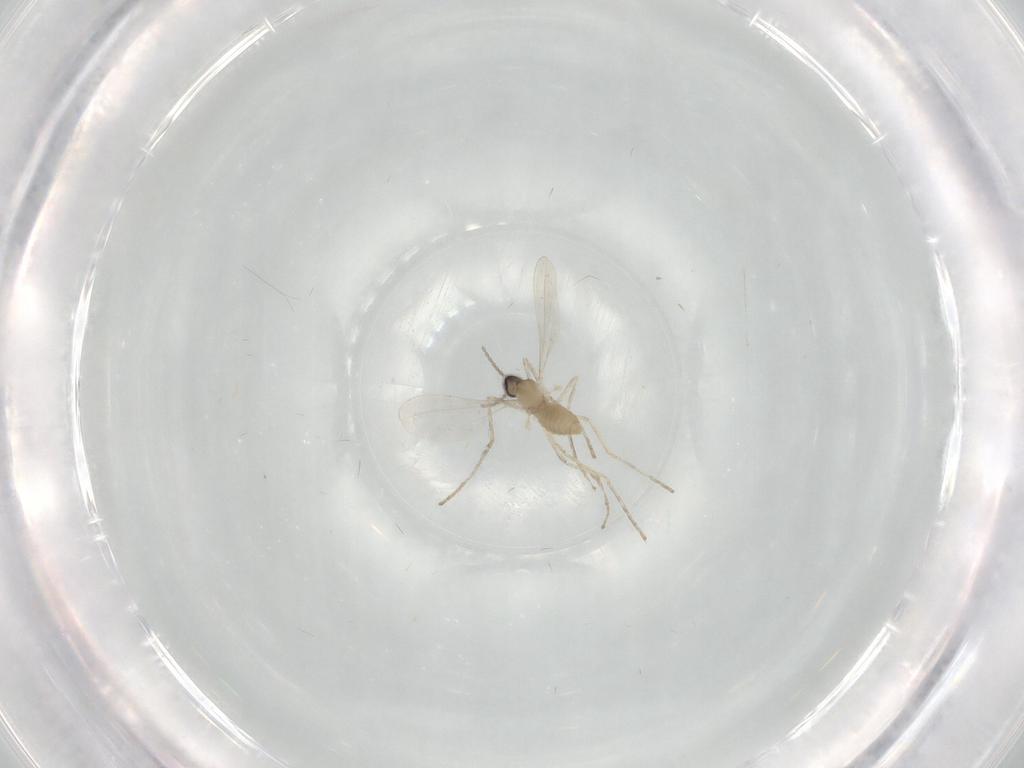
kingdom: Animalia
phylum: Arthropoda
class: Insecta
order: Diptera
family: Cecidomyiidae
